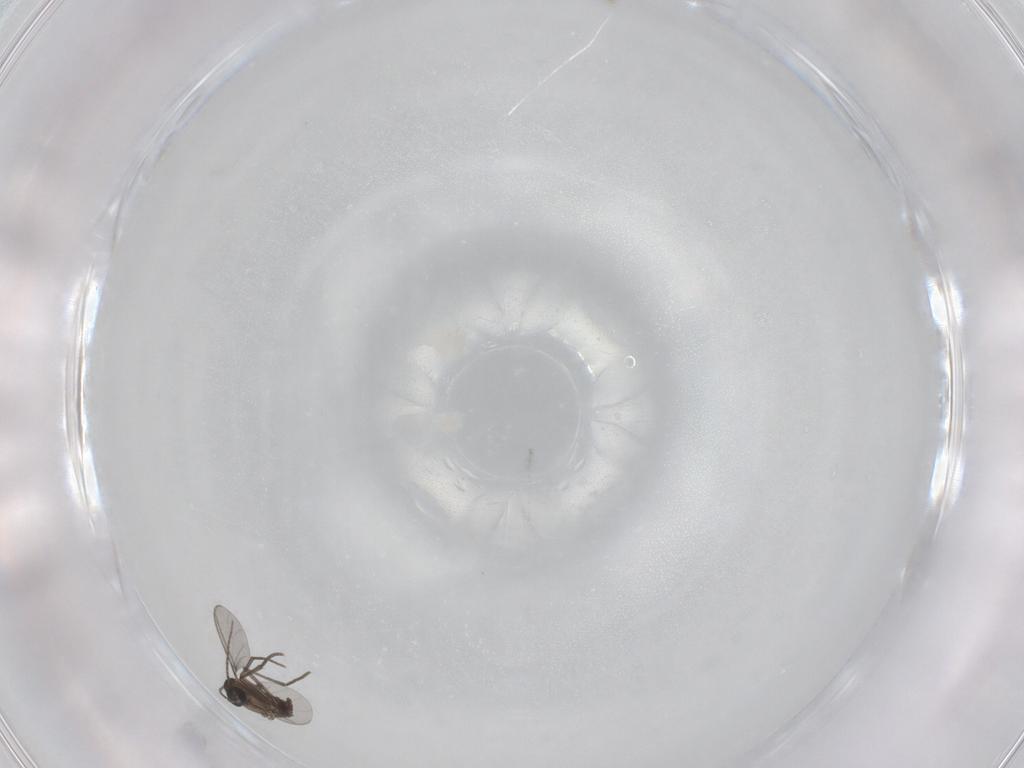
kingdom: Animalia
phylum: Arthropoda
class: Insecta
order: Diptera
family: Sciaridae
